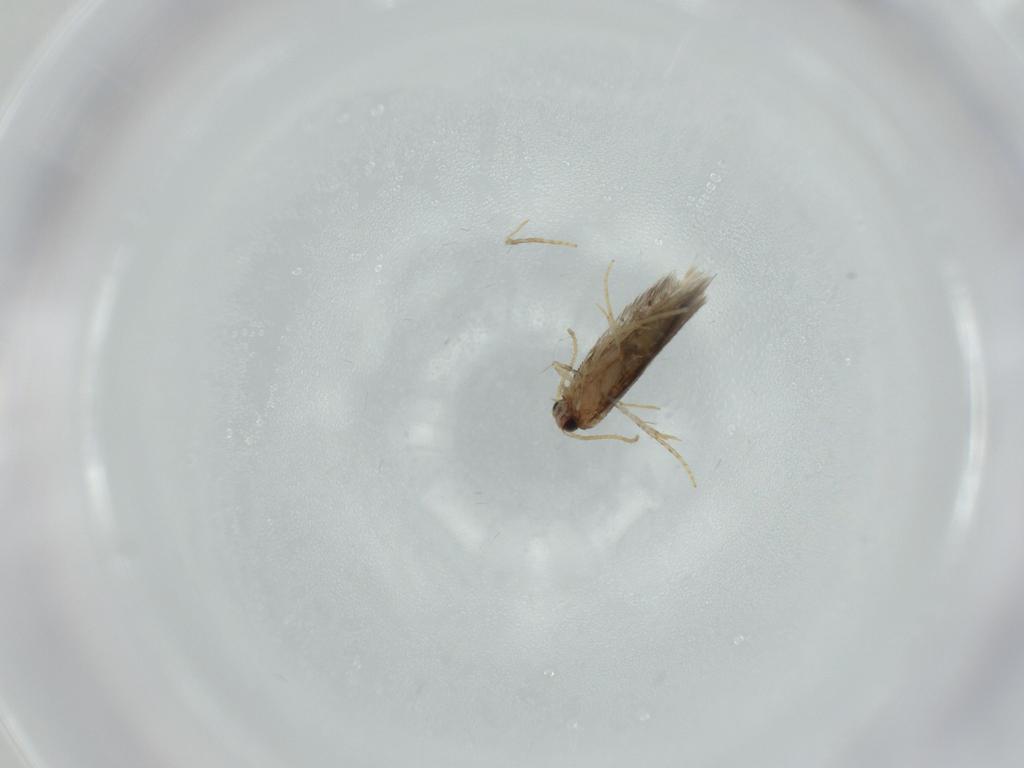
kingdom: Animalia
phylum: Arthropoda
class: Insecta
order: Lepidoptera
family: Copromorphidae
